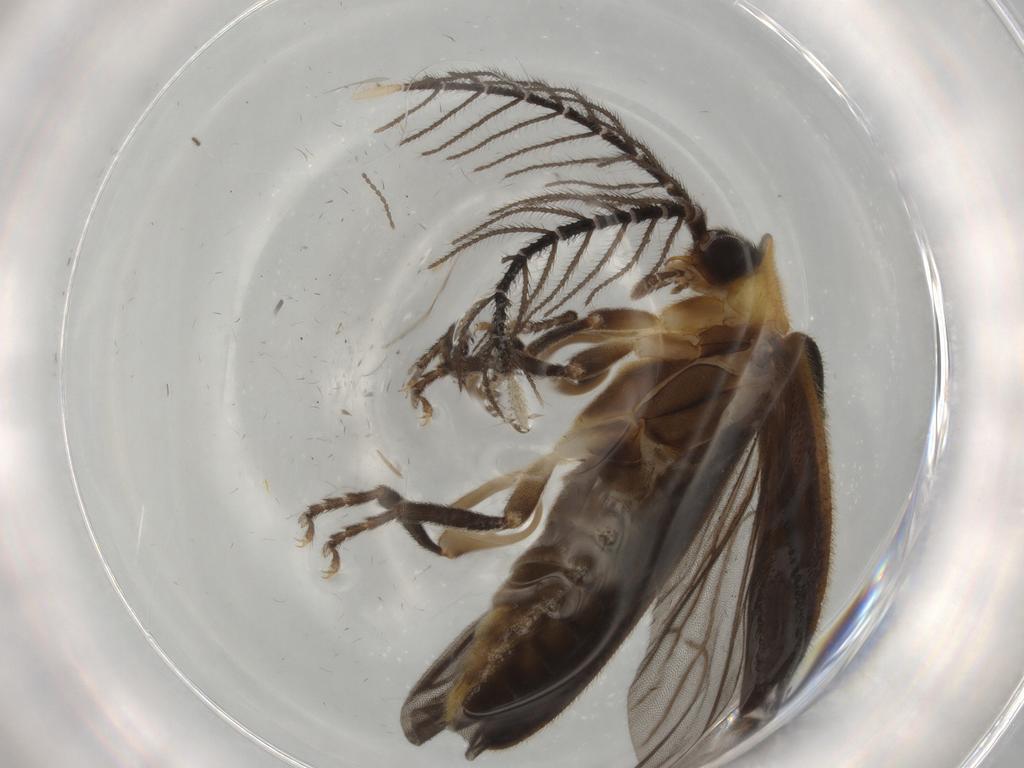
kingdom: Animalia
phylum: Arthropoda
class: Insecta
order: Coleoptera
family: Lampyridae
